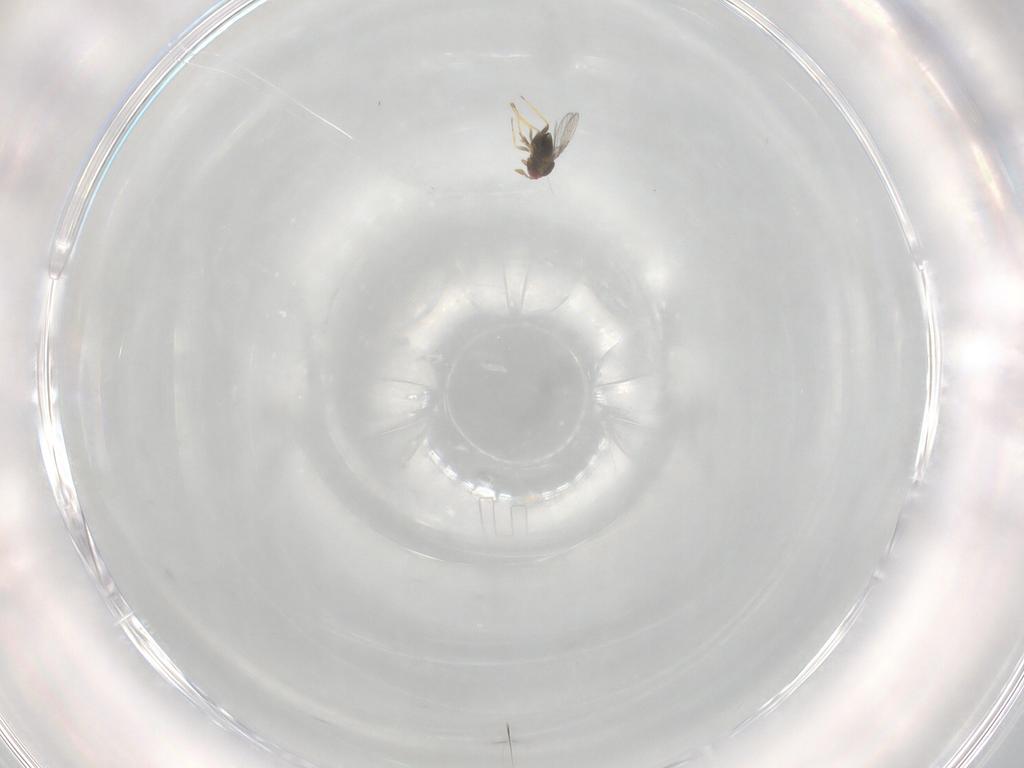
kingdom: Animalia
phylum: Arthropoda
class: Insecta
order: Hymenoptera
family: Trichogrammatidae
